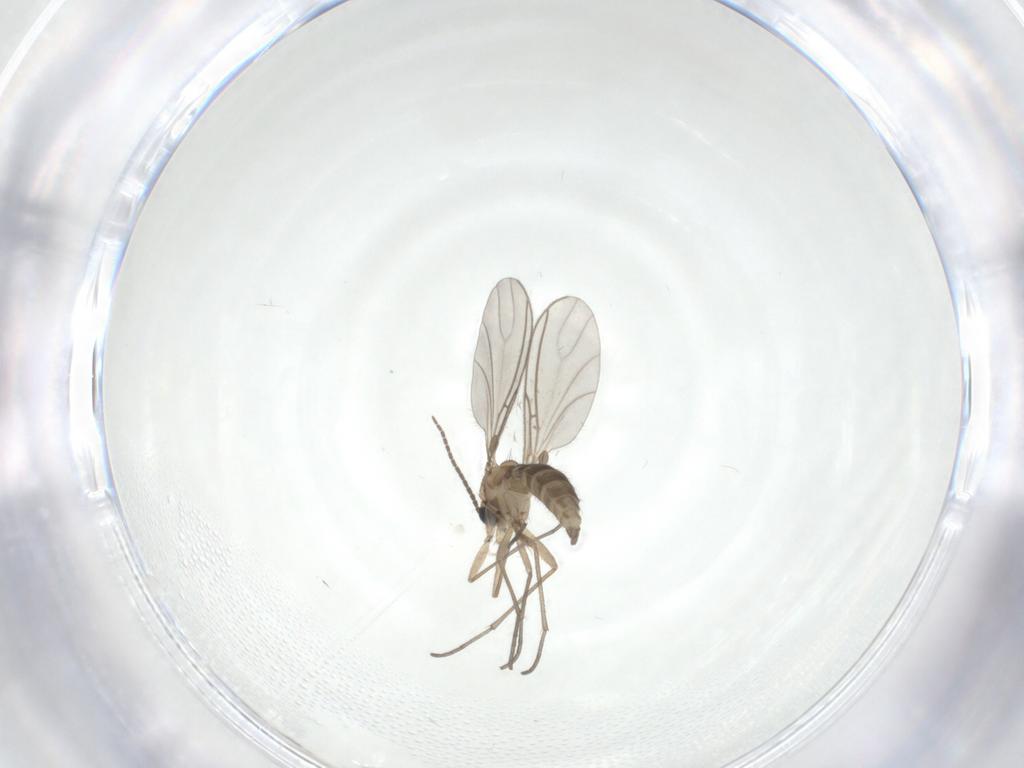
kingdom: Animalia
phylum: Arthropoda
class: Insecta
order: Diptera
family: Sciaridae
